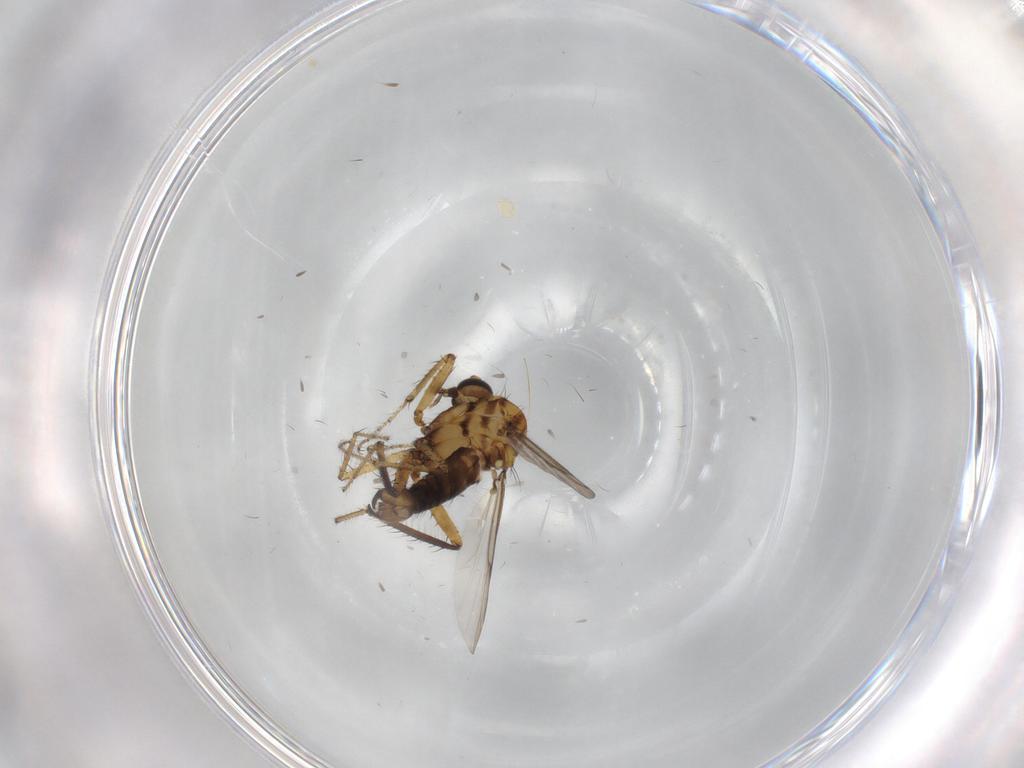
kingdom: Animalia
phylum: Arthropoda
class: Insecta
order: Diptera
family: Ceratopogonidae
